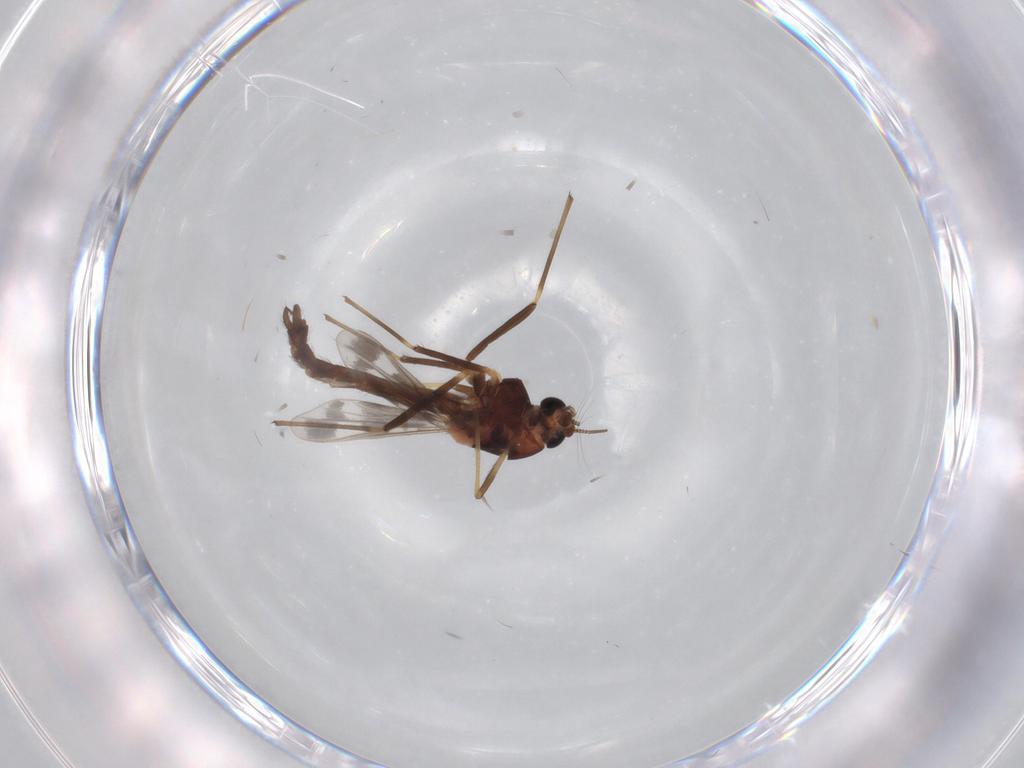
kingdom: Animalia
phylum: Arthropoda
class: Insecta
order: Diptera
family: Chironomidae
